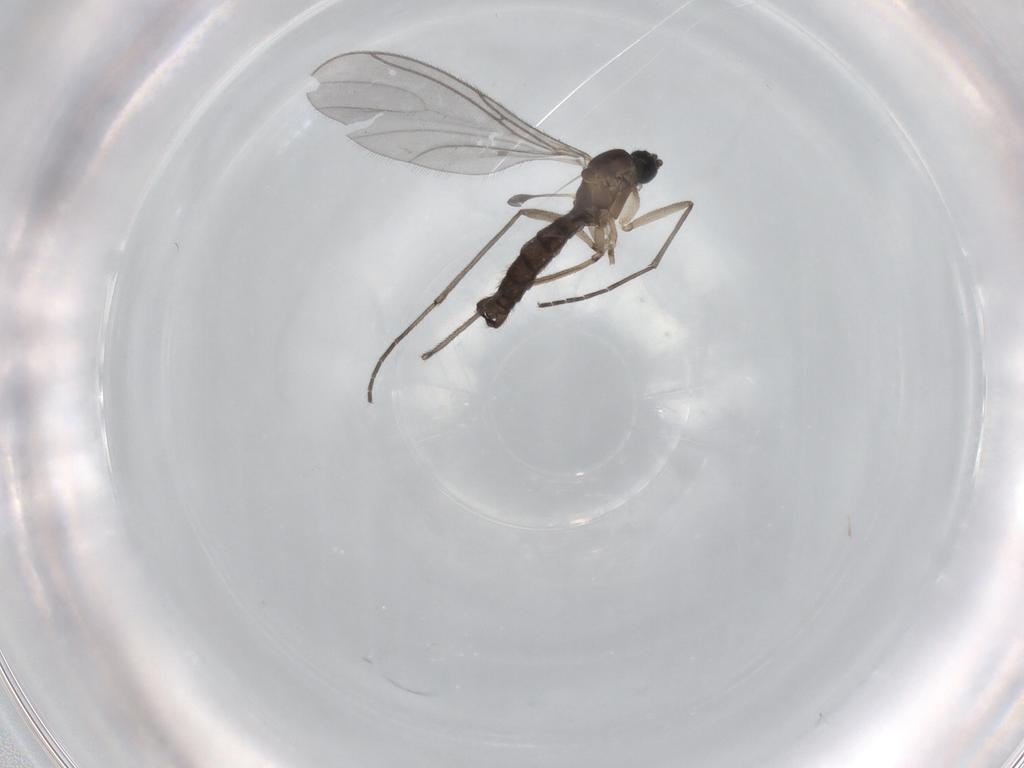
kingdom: Animalia
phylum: Arthropoda
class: Insecta
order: Diptera
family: Sciaridae
